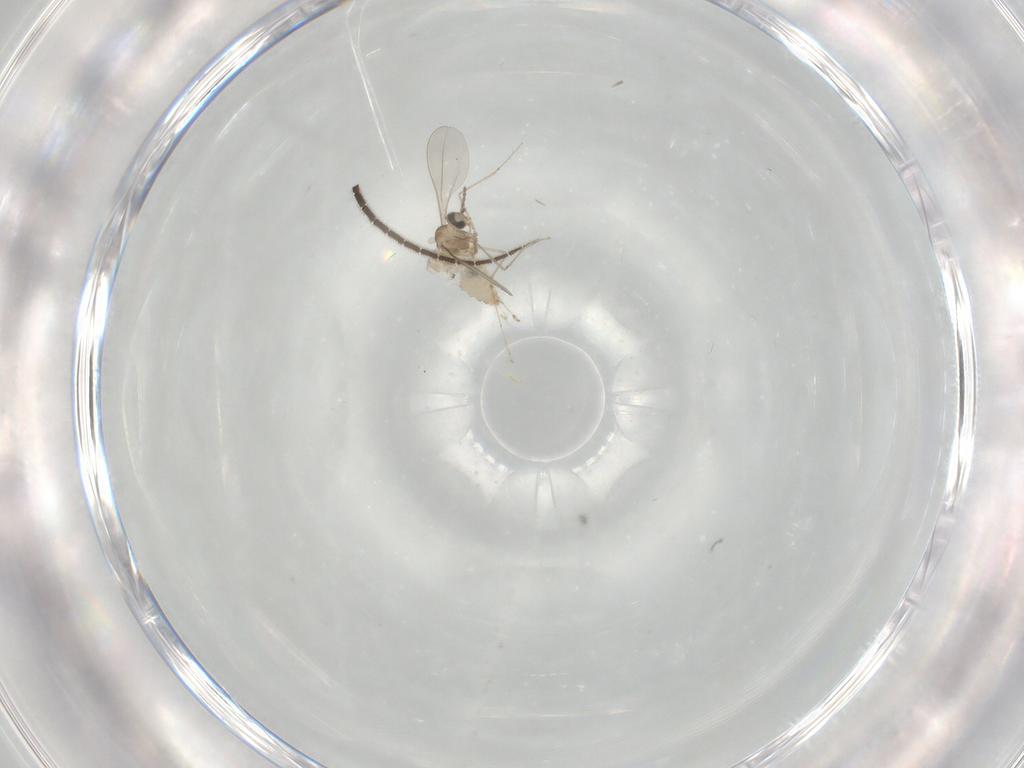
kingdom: Animalia
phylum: Arthropoda
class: Insecta
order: Diptera
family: Cecidomyiidae
